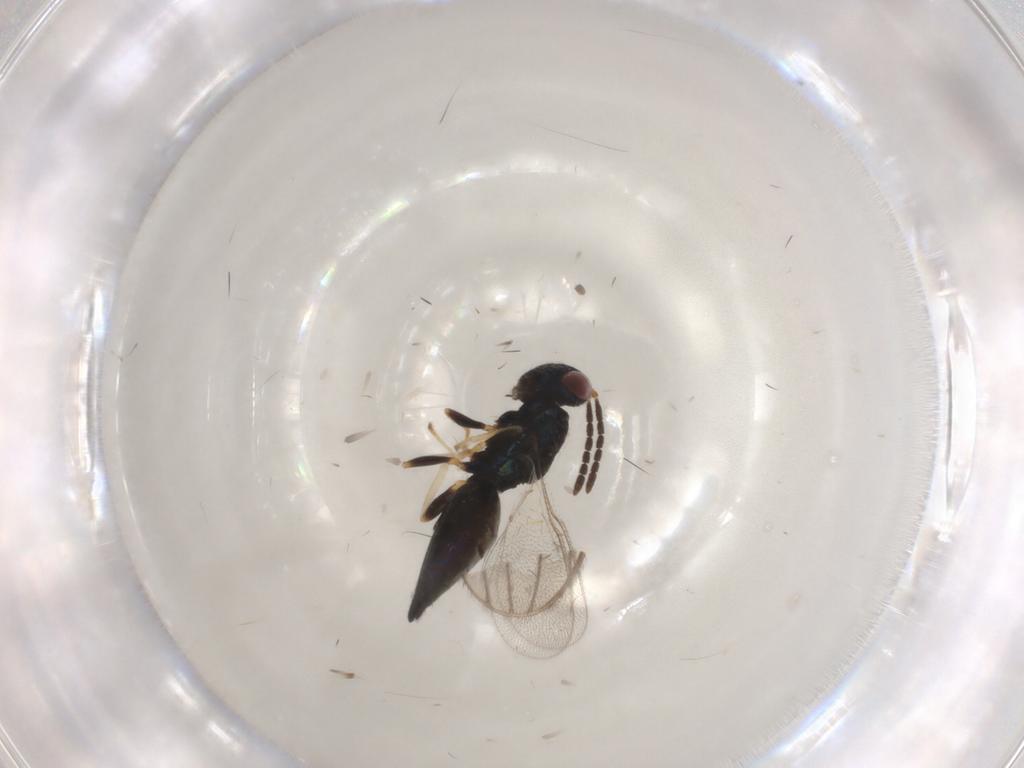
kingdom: Animalia
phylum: Arthropoda
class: Insecta
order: Hymenoptera
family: Pteromalidae
